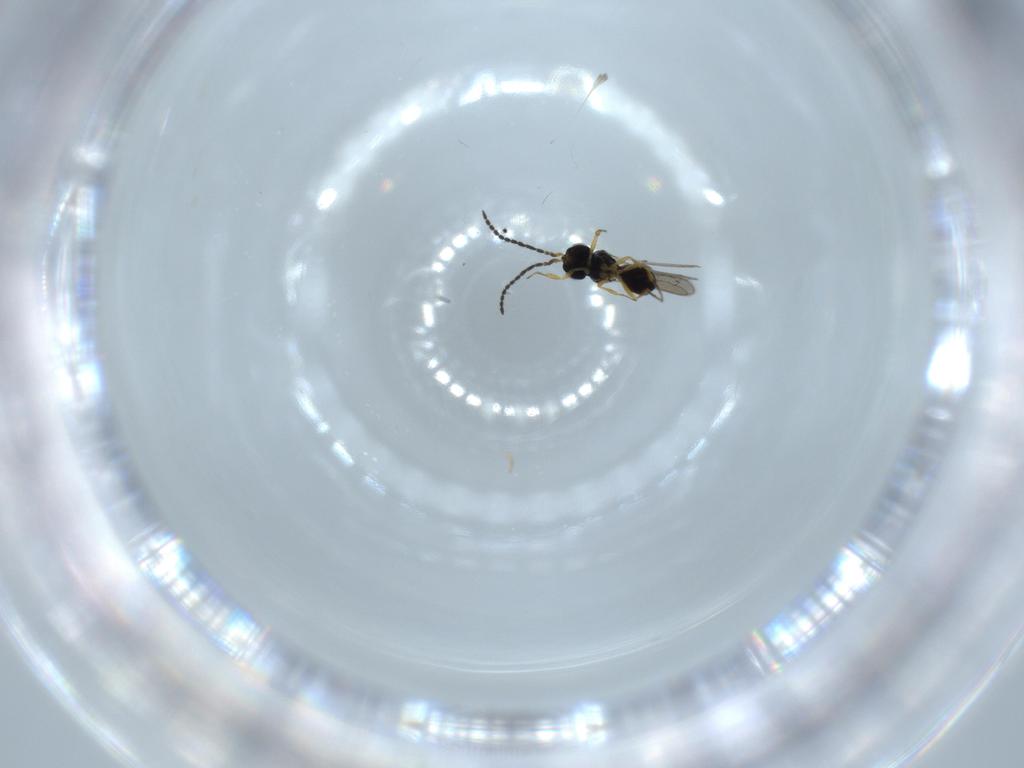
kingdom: Animalia
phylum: Arthropoda
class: Insecta
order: Hymenoptera
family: Scelionidae
